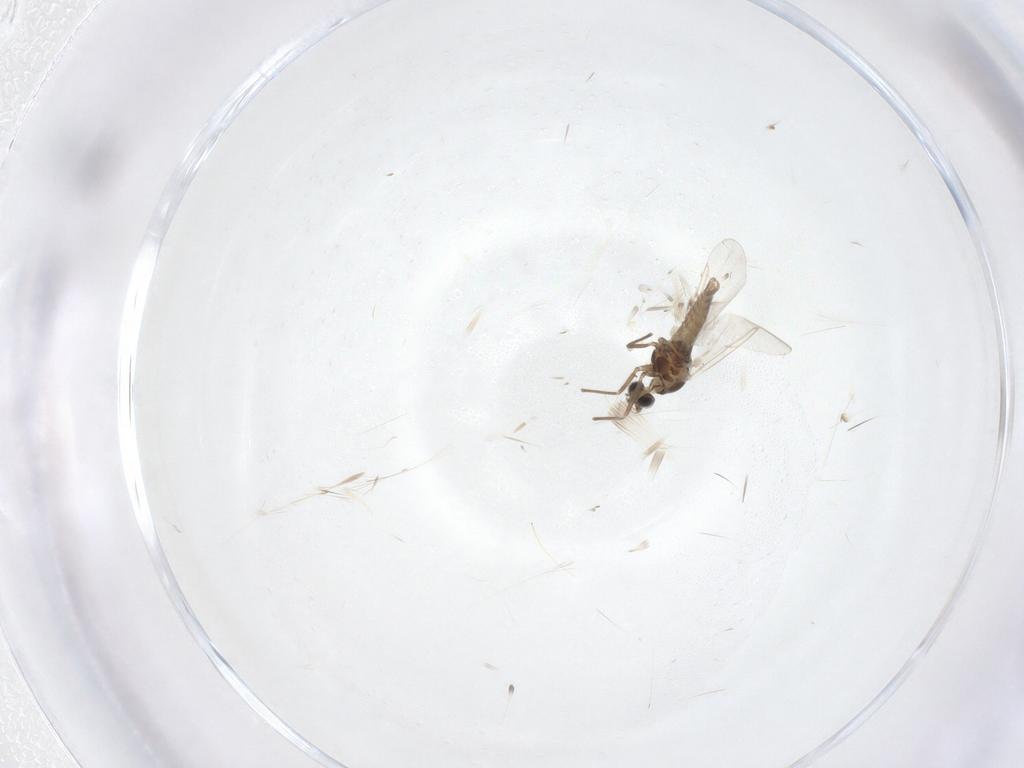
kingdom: Animalia
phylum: Arthropoda
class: Insecta
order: Diptera
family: Cecidomyiidae
